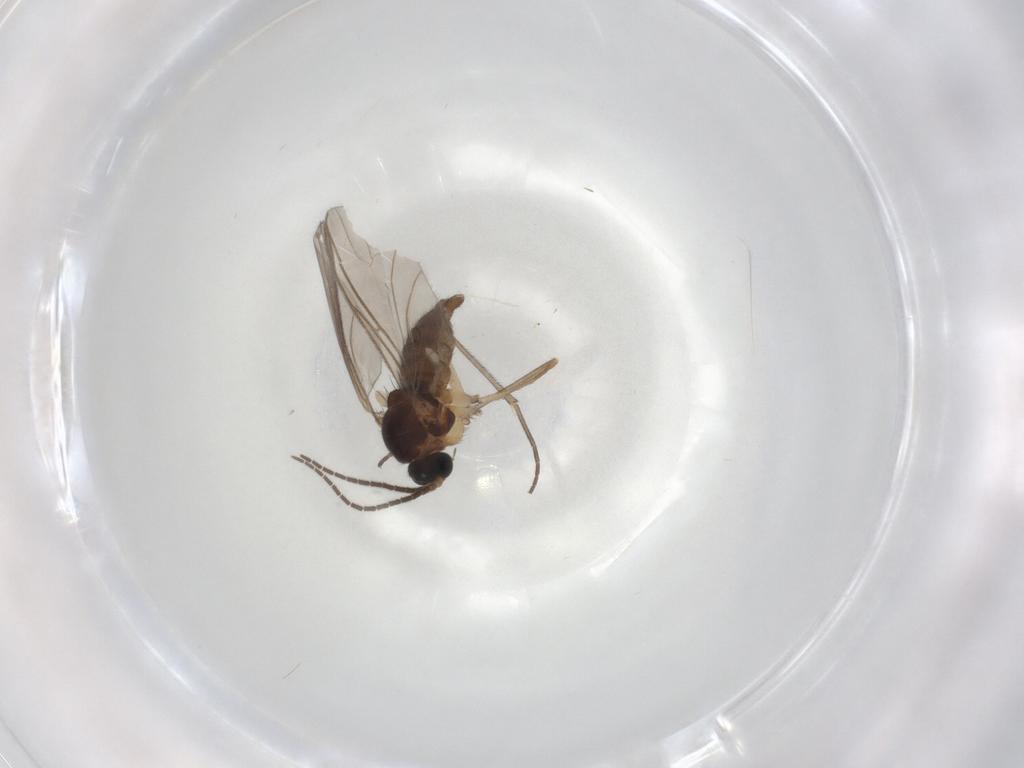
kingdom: Animalia
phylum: Arthropoda
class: Insecta
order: Diptera
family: Sciaridae
